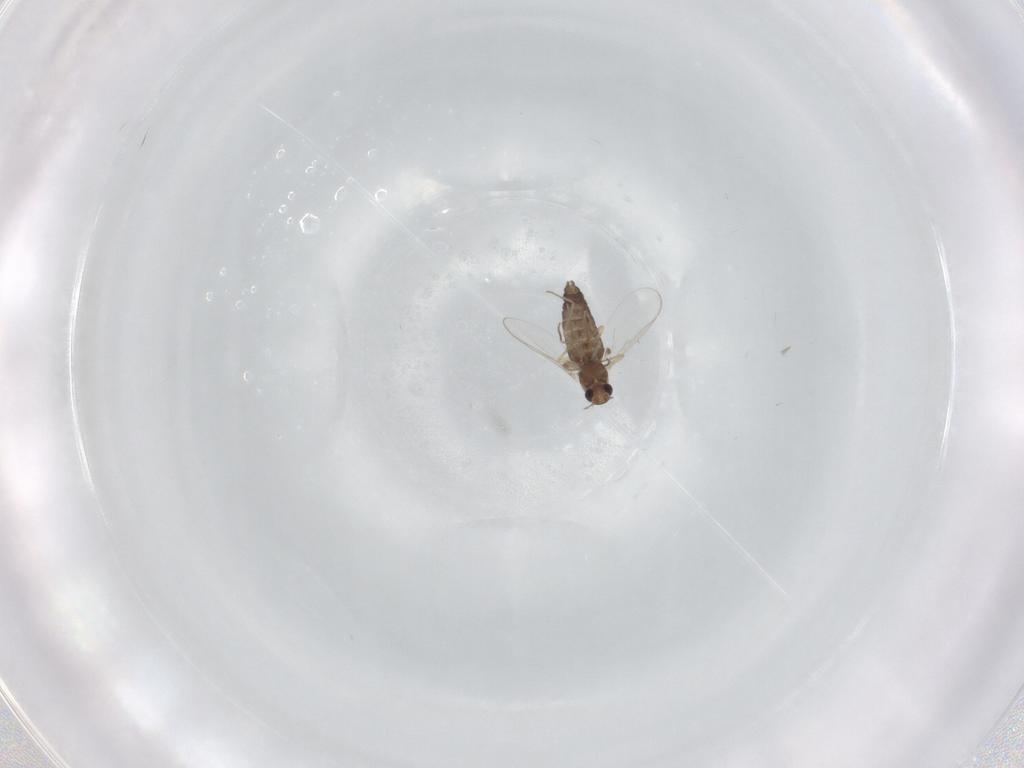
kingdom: Animalia
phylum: Arthropoda
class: Insecta
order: Diptera
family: Chironomidae
